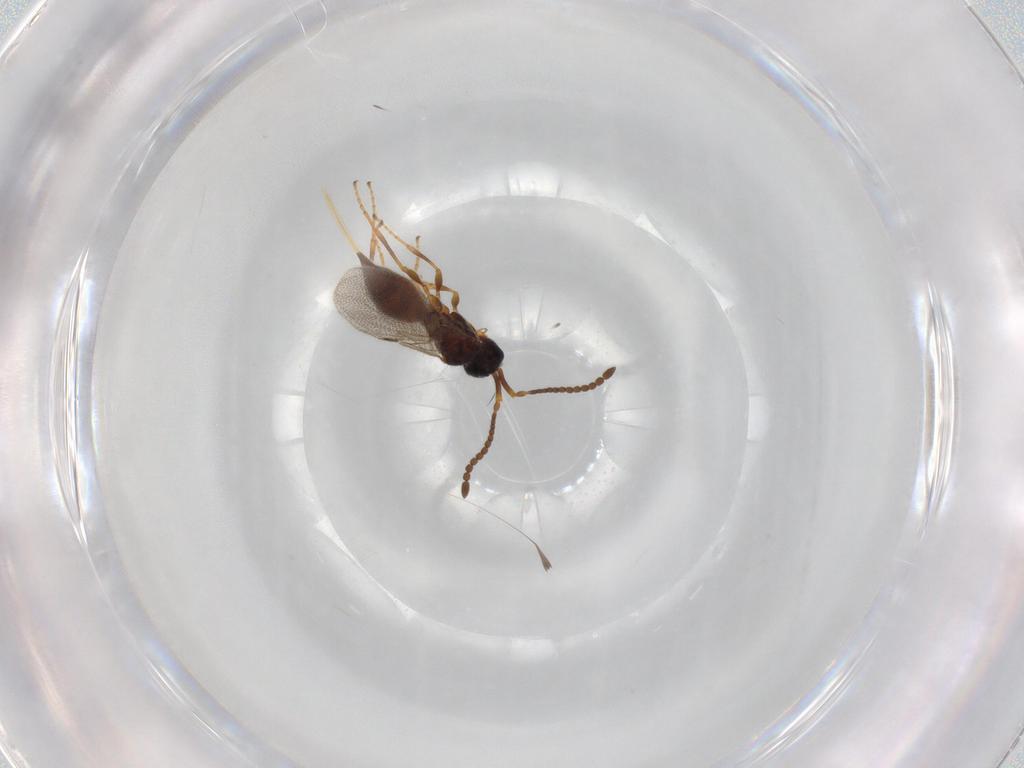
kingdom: Animalia
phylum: Arthropoda
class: Insecta
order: Hymenoptera
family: Diapriidae
